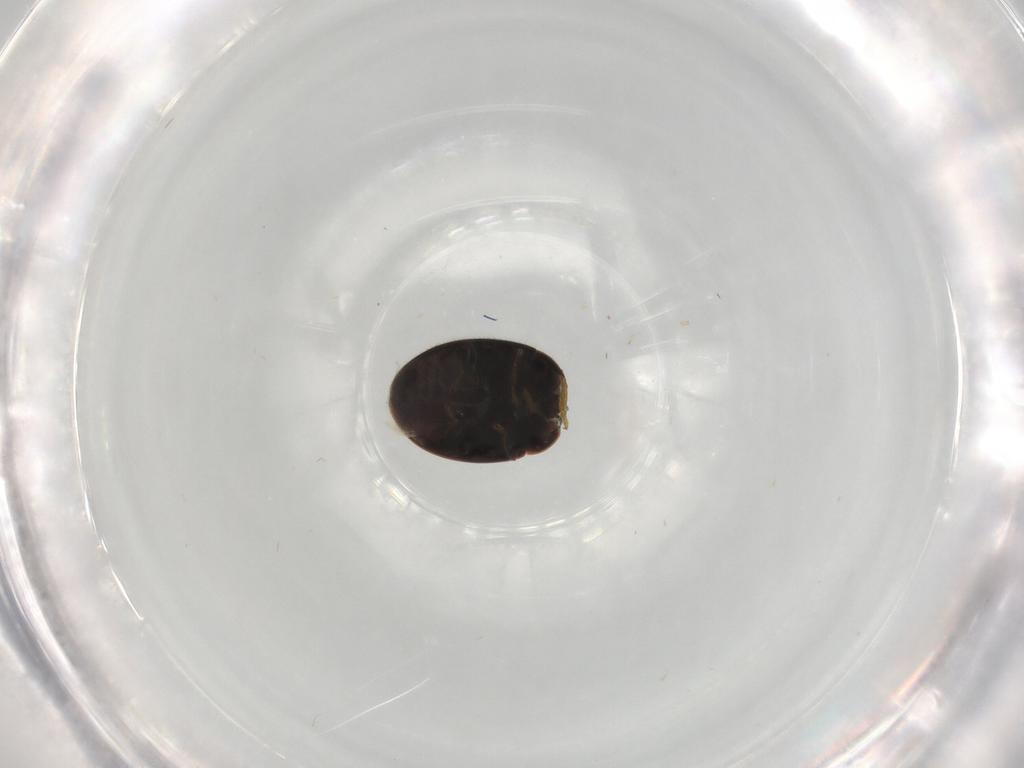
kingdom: Animalia
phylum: Arthropoda
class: Insecta
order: Coleoptera
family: Coccinellidae
